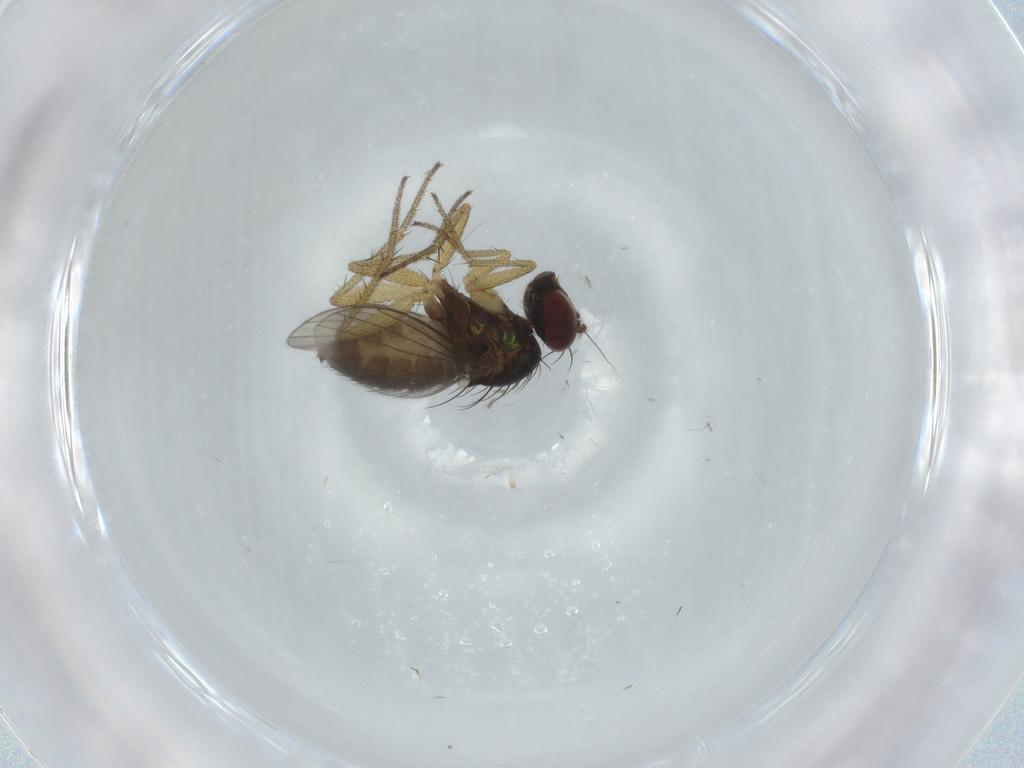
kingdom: Animalia
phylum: Arthropoda
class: Insecta
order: Diptera
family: Dolichopodidae
